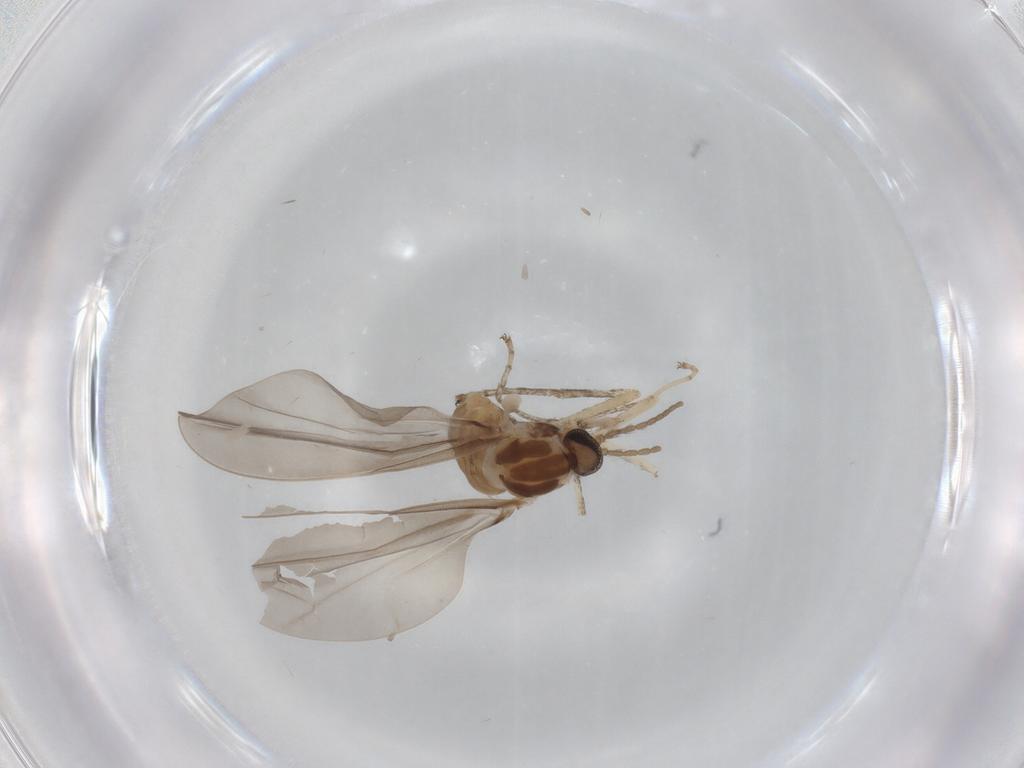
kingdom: Animalia
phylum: Arthropoda
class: Insecta
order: Diptera
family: Cecidomyiidae
